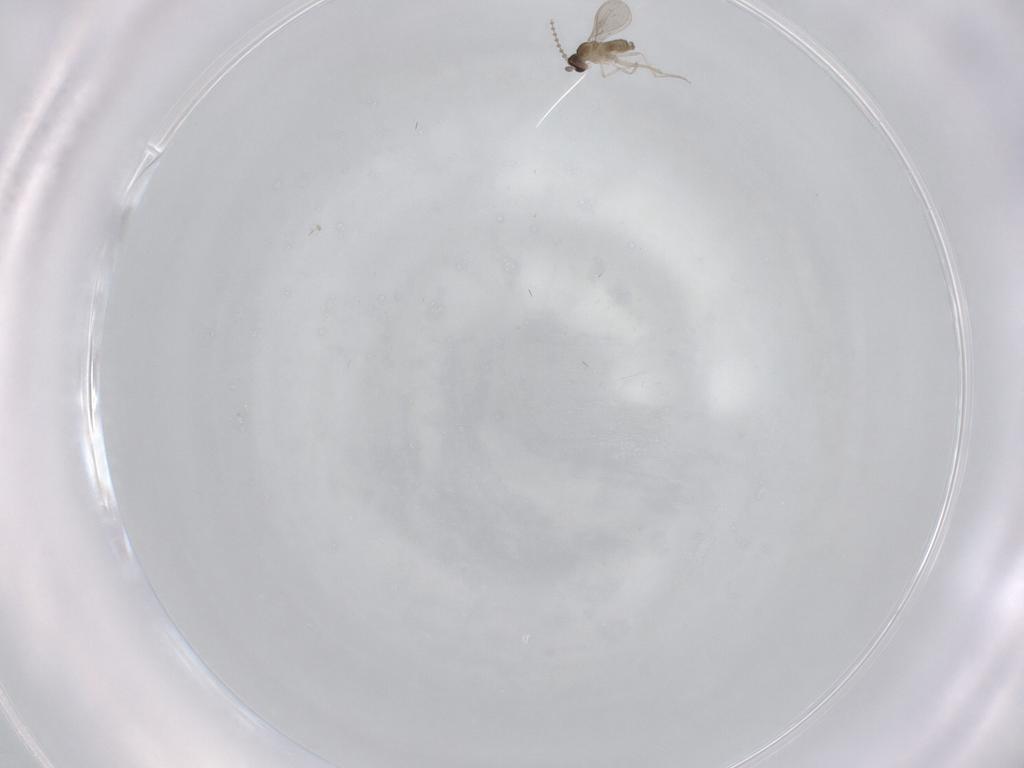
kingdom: Animalia
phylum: Arthropoda
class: Insecta
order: Diptera
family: Cecidomyiidae
